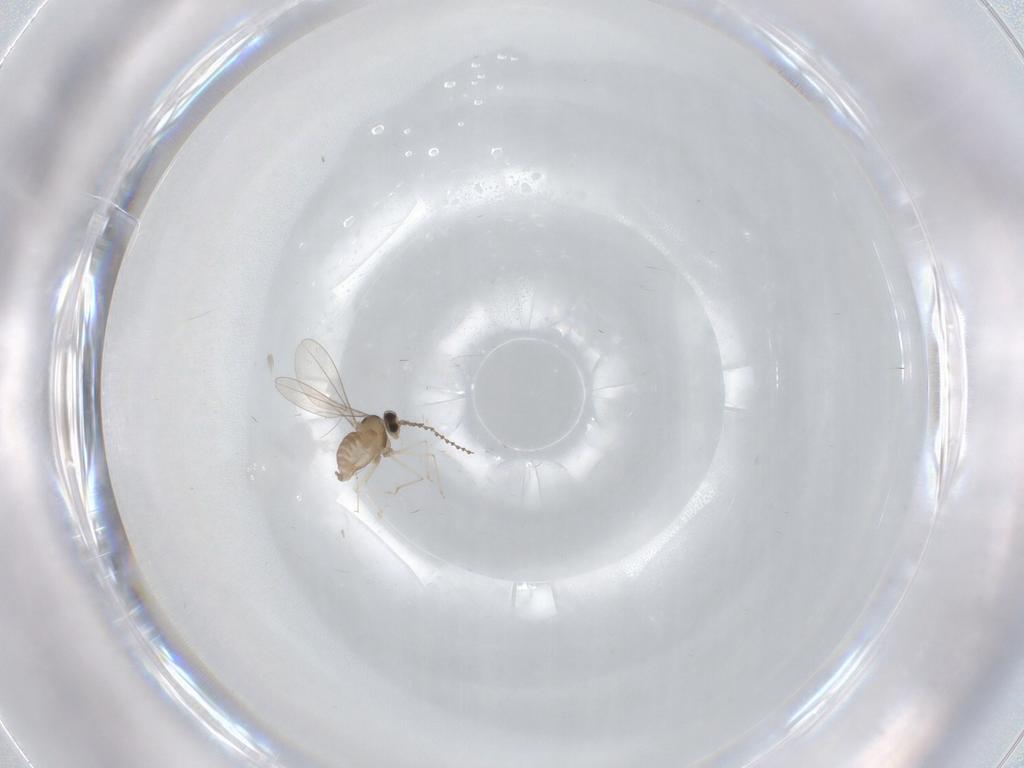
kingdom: Animalia
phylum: Arthropoda
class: Insecta
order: Diptera
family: Cecidomyiidae
